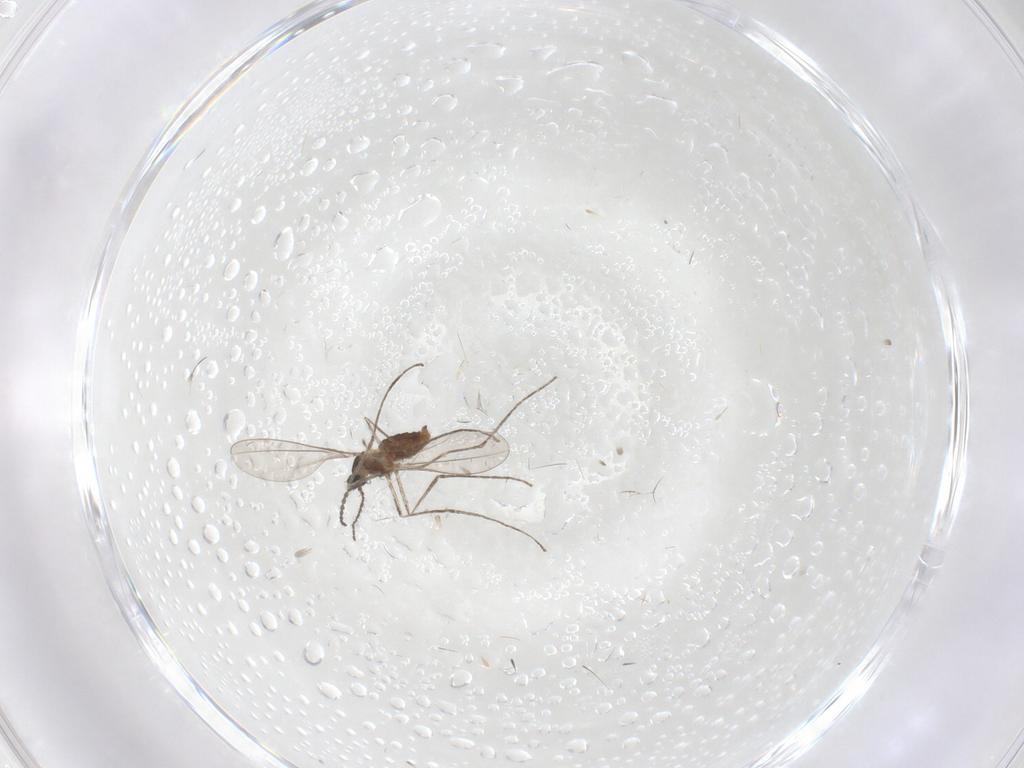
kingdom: Animalia
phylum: Arthropoda
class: Insecta
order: Diptera
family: Cecidomyiidae
